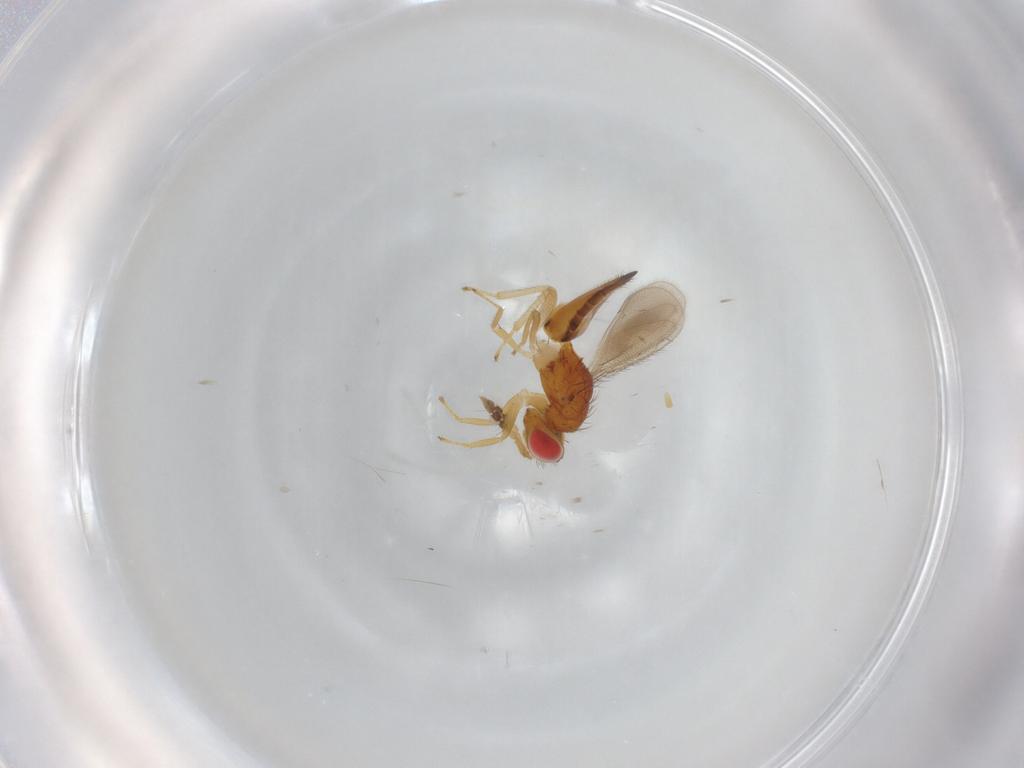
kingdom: Animalia
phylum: Arthropoda
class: Insecta
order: Hymenoptera
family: Eulophidae
